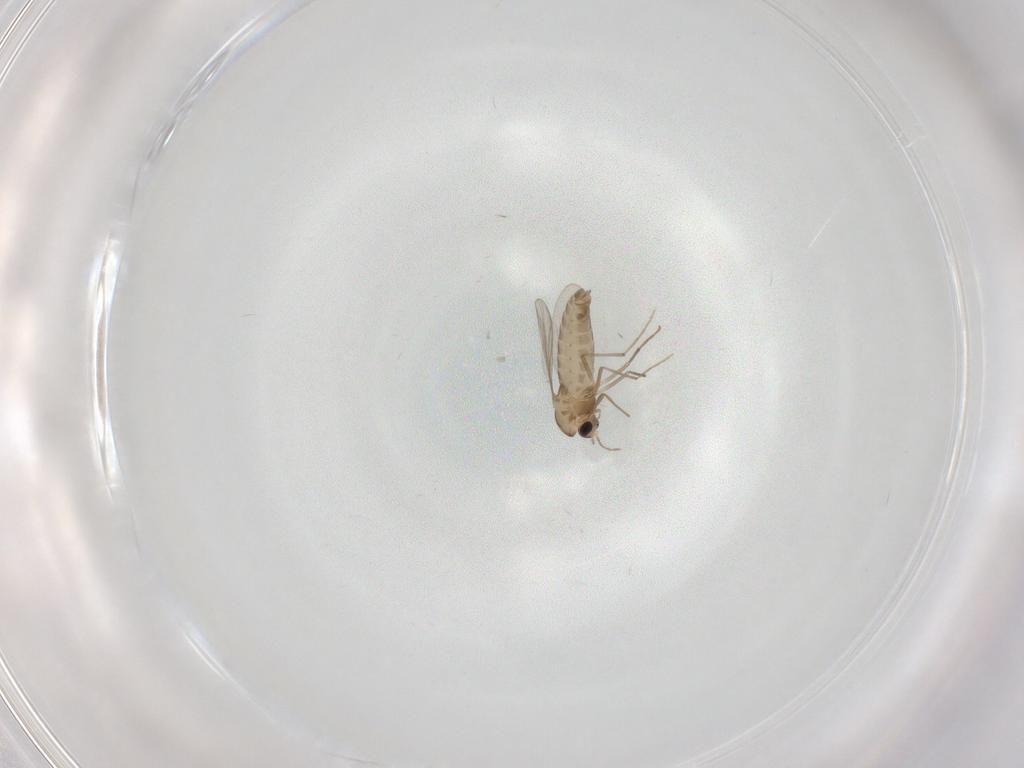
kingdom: Animalia
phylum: Arthropoda
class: Insecta
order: Diptera
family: Chironomidae
